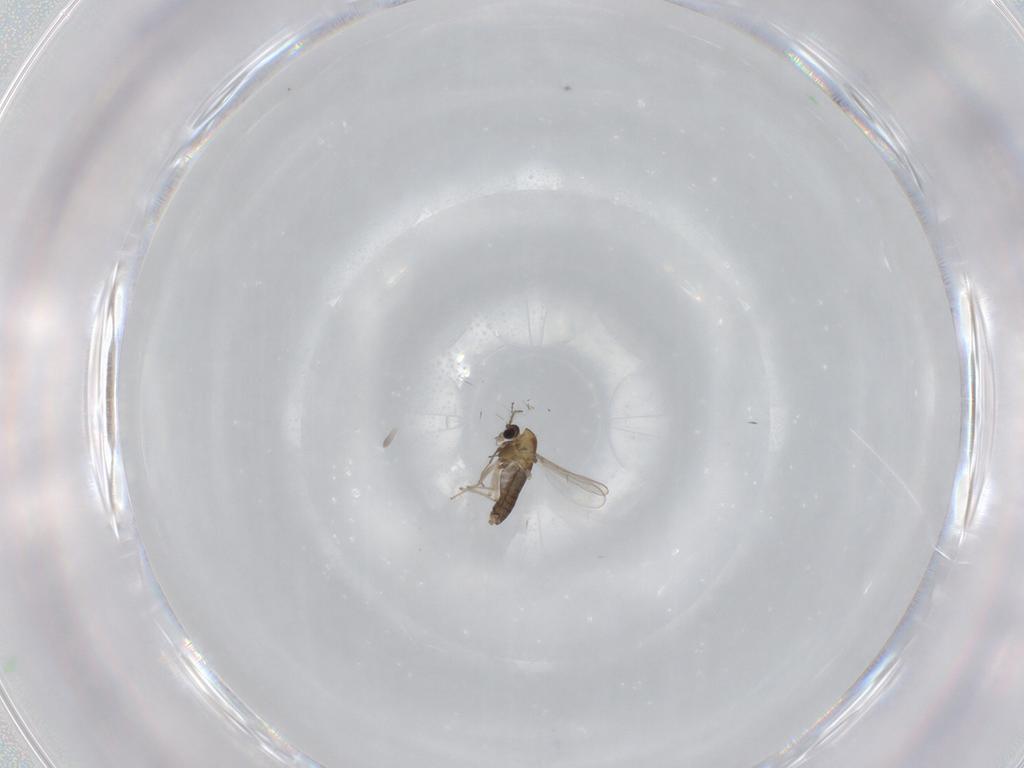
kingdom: Animalia
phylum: Arthropoda
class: Insecta
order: Diptera
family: Chironomidae
